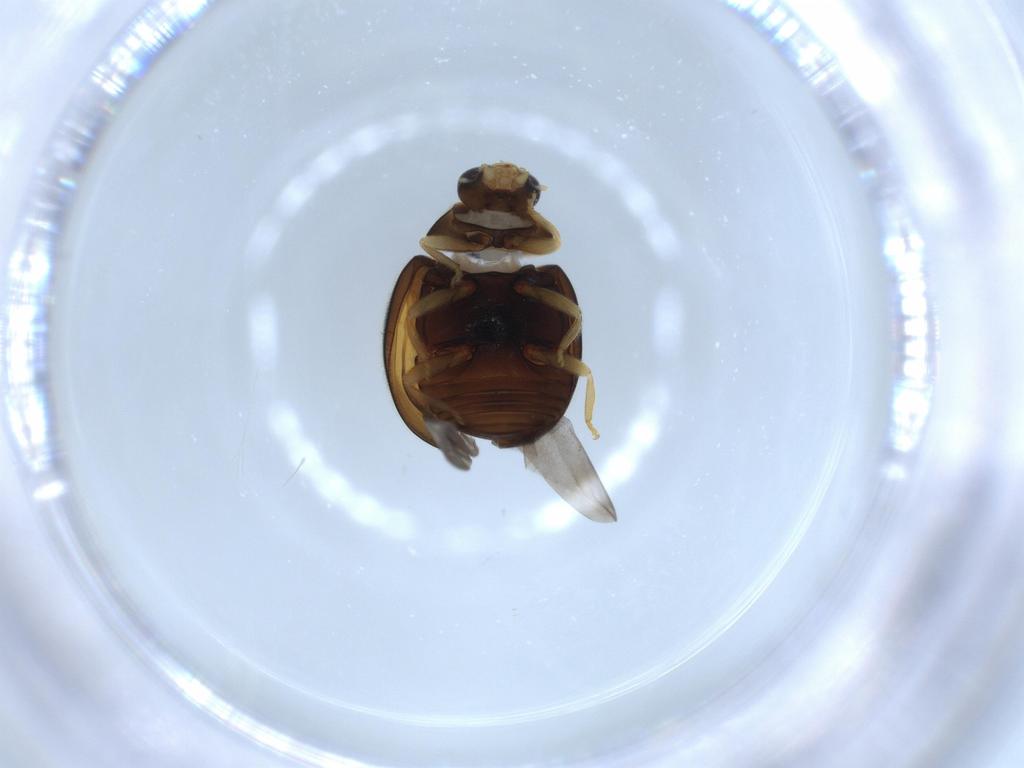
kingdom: Animalia
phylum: Arthropoda
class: Insecta
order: Coleoptera
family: Coccinellidae
